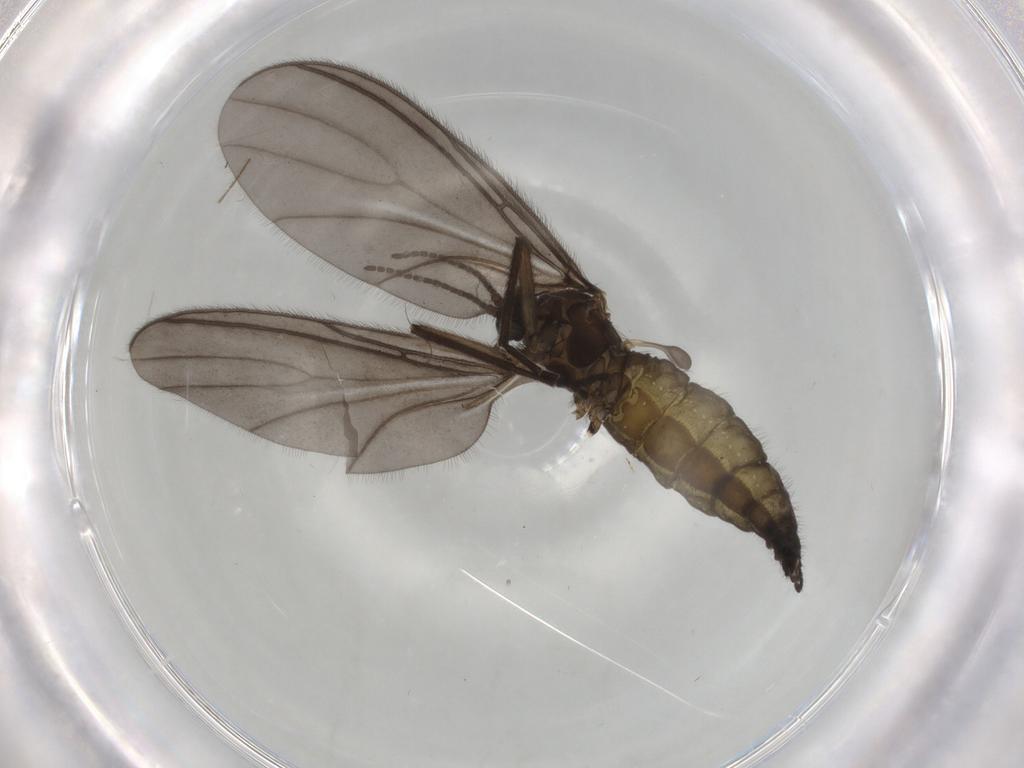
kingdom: Animalia
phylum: Arthropoda
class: Insecta
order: Diptera
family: Sciaridae
